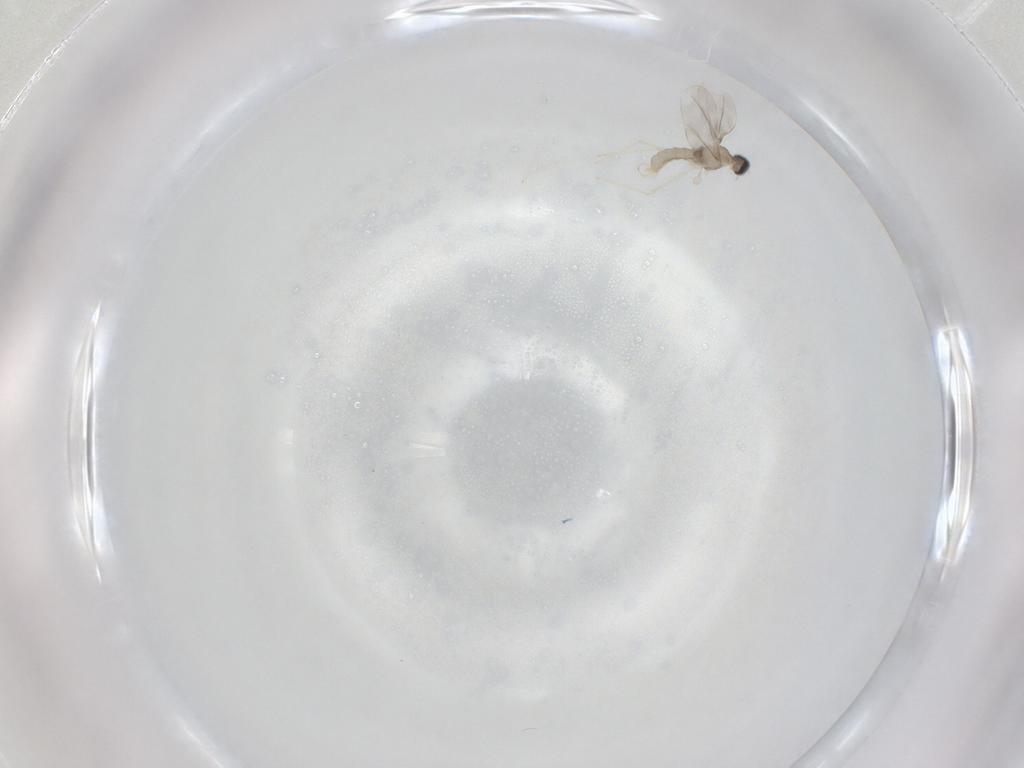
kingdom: Animalia
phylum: Arthropoda
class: Insecta
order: Diptera
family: Cecidomyiidae
